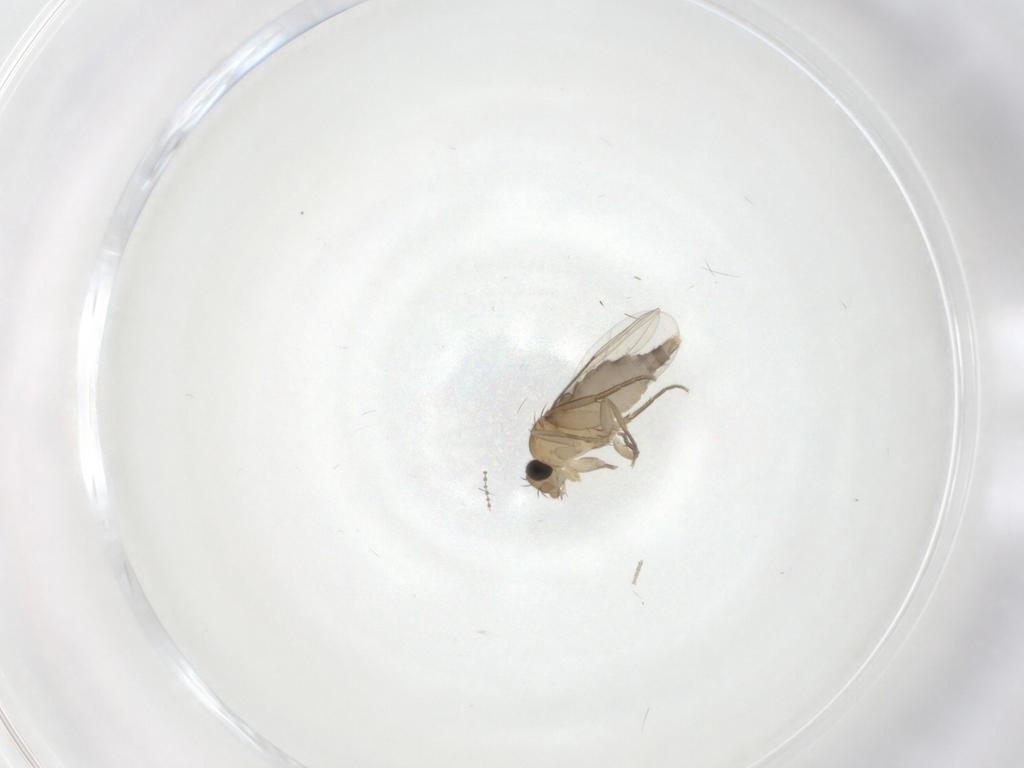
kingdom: Animalia
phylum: Arthropoda
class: Insecta
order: Diptera
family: Phoridae
